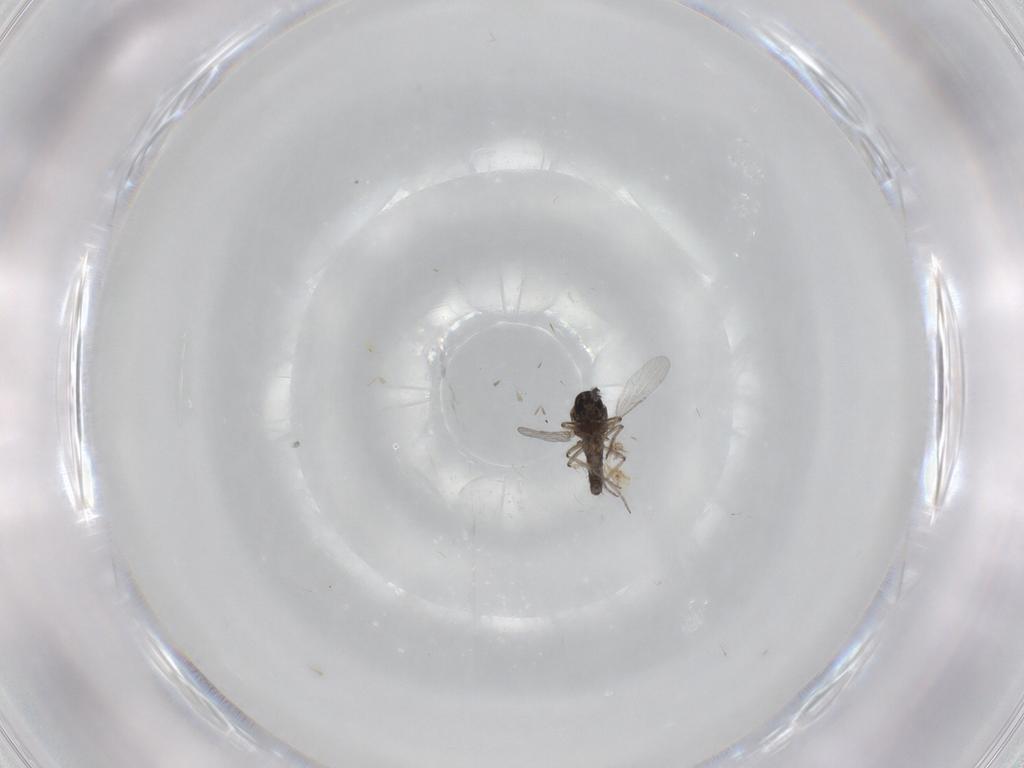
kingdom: Animalia
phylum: Arthropoda
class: Insecta
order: Diptera
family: Ceratopogonidae
